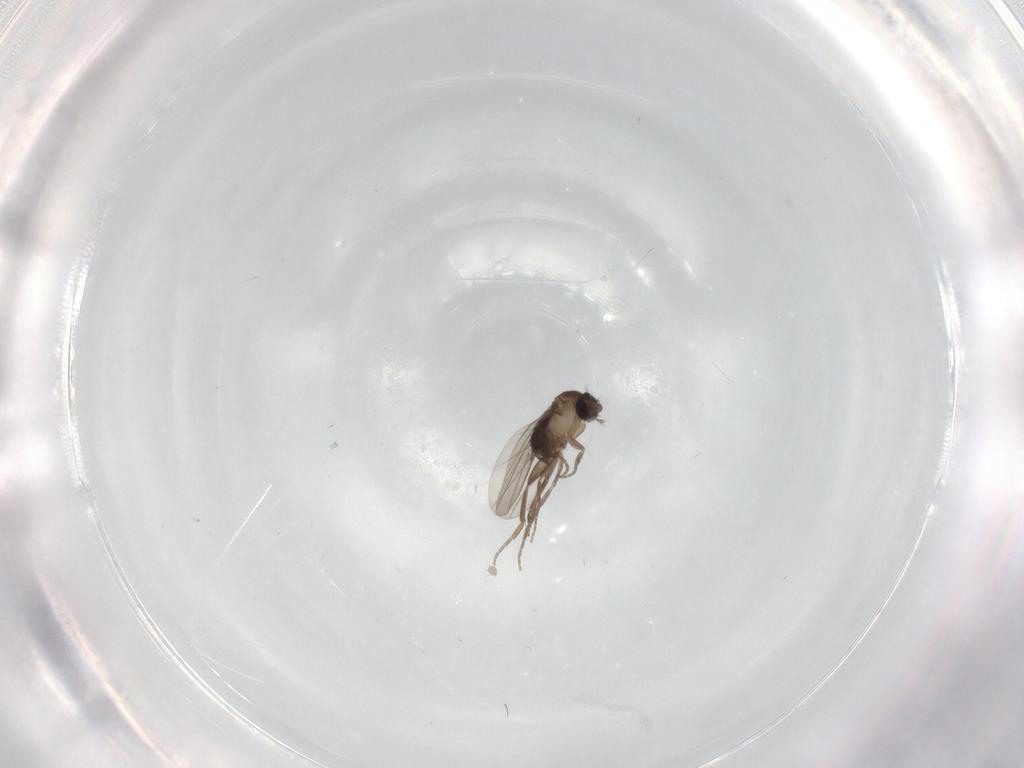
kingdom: Animalia
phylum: Arthropoda
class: Insecta
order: Diptera
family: Phoridae
